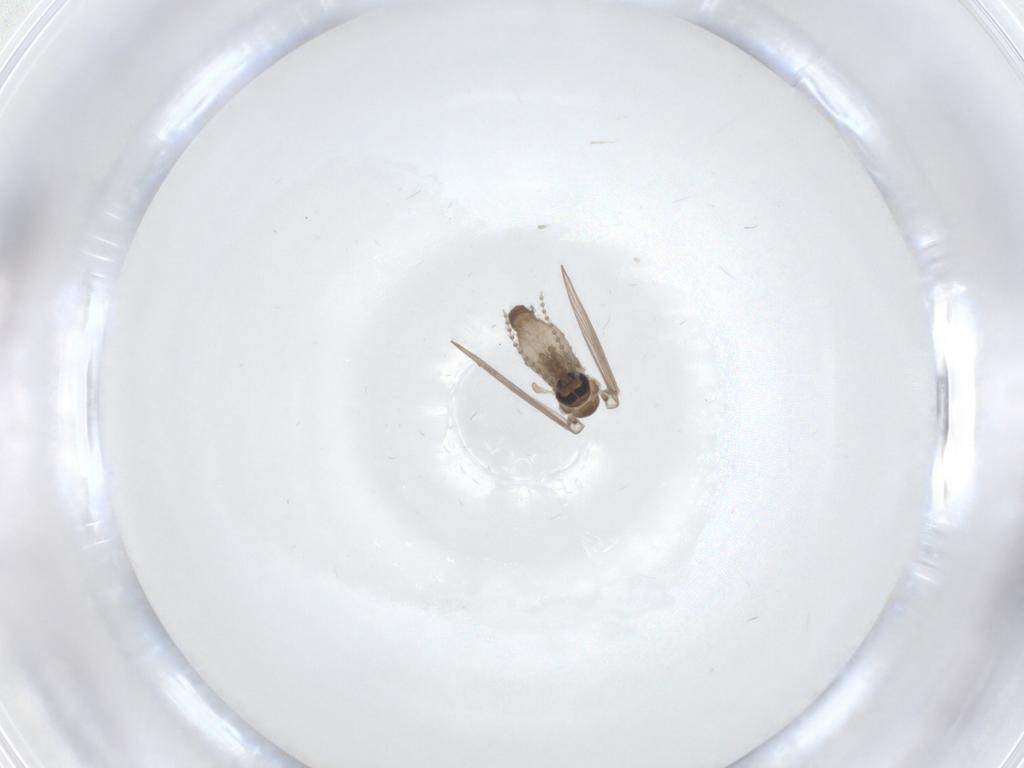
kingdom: Animalia
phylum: Arthropoda
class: Insecta
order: Diptera
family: Psychodidae
